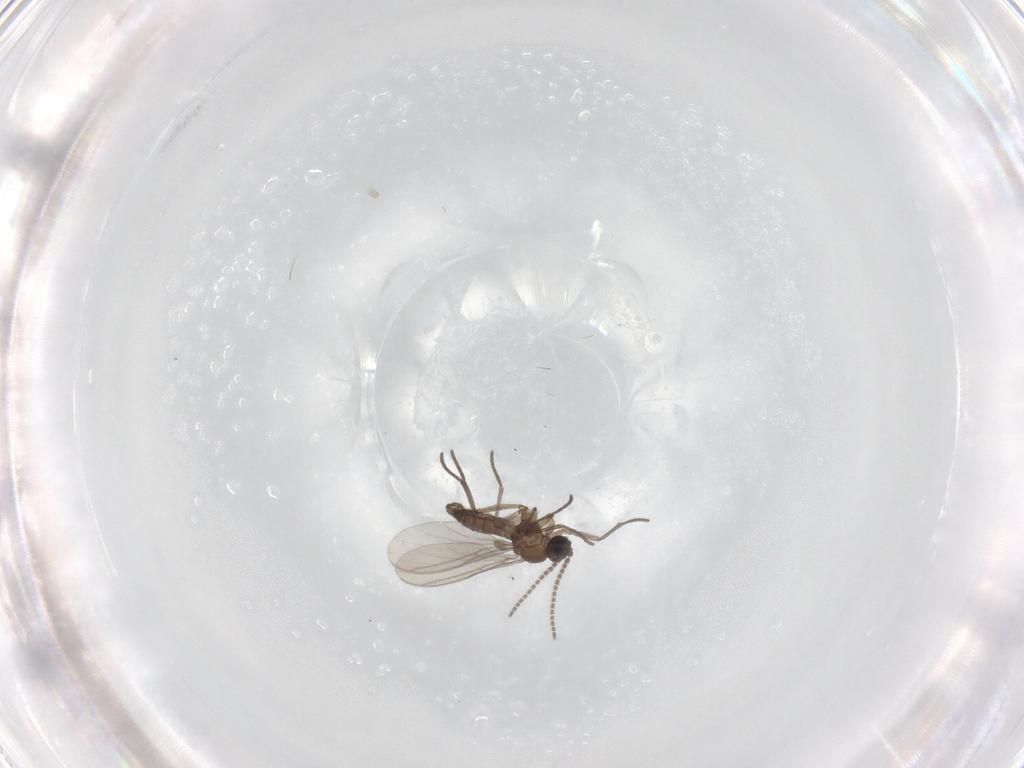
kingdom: Animalia
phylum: Arthropoda
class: Insecta
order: Diptera
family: Sciaridae
